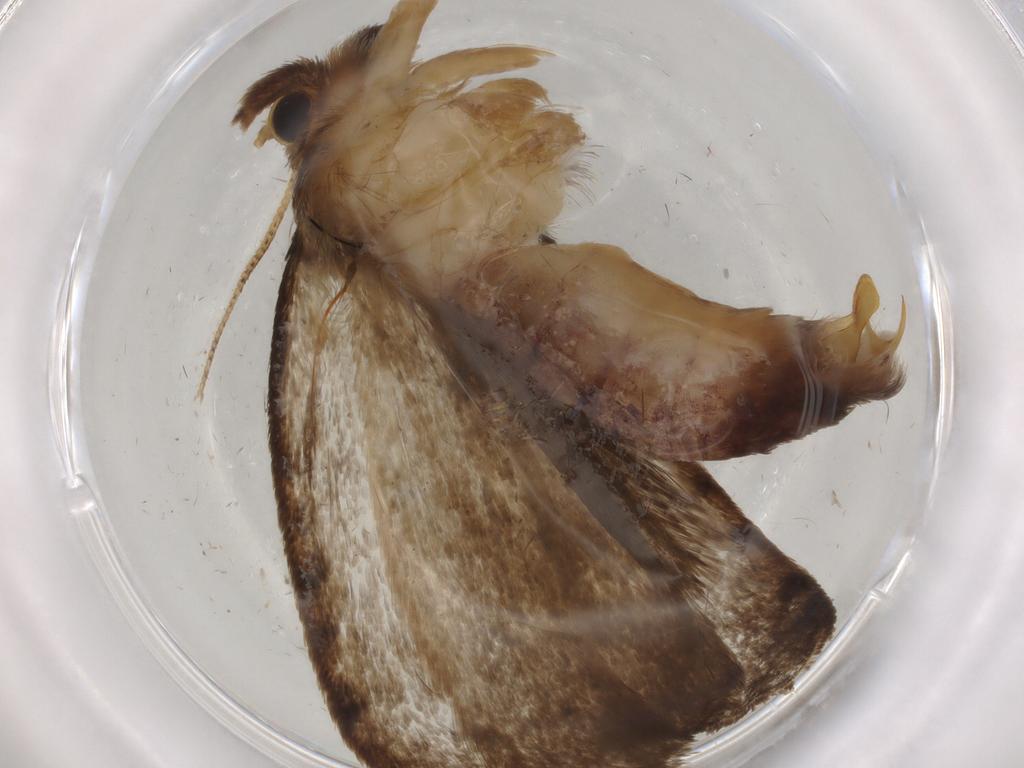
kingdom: Animalia
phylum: Arthropoda
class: Insecta
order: Lepidoptera
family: Tineidae
